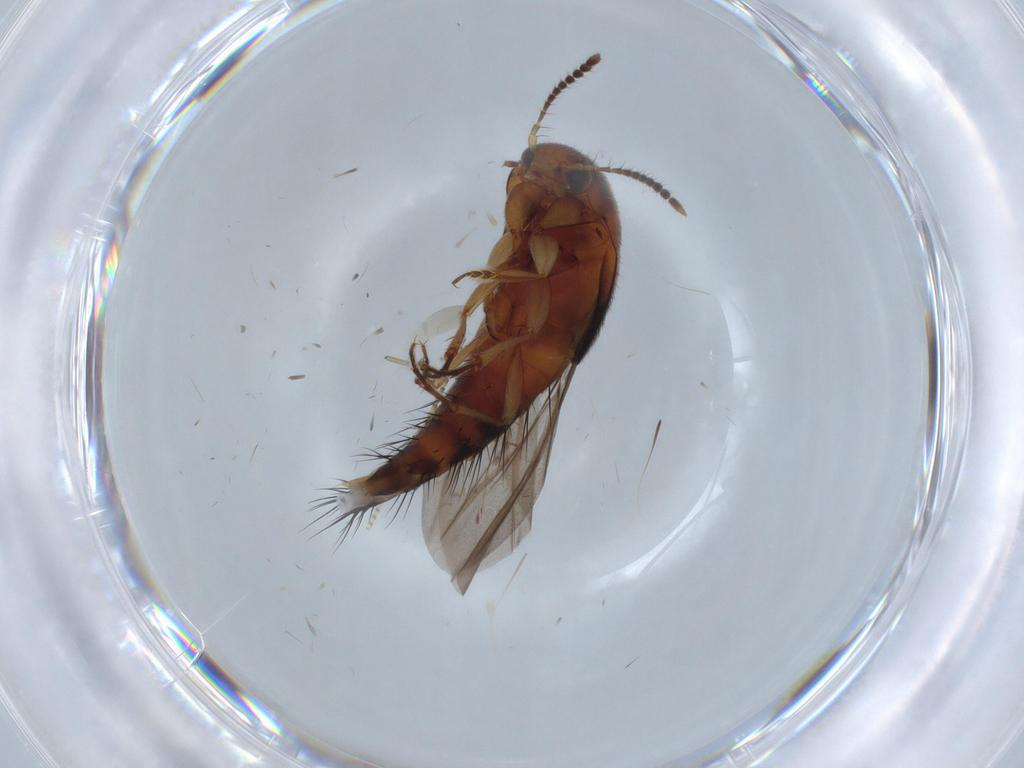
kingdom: Animalia
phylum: Arthropoda
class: Insecta
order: Coleoptera
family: Staphylinidae
